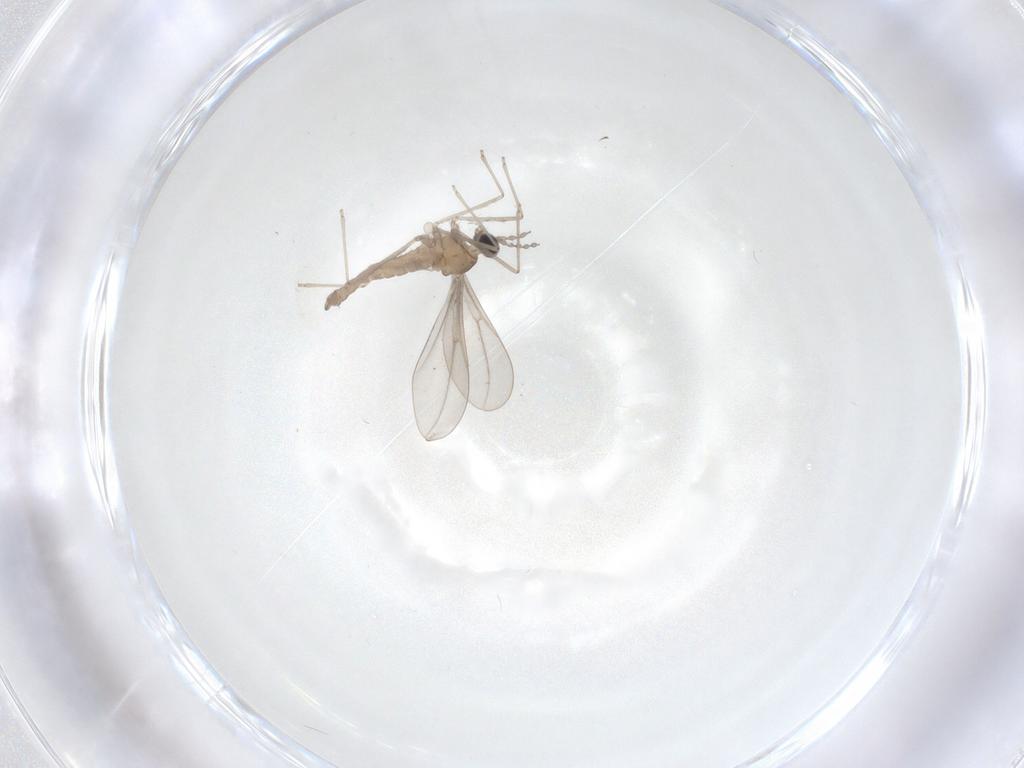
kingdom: Animalia
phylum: Arthropoda
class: Insecta
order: Diptera
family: Cecidomyiidae
